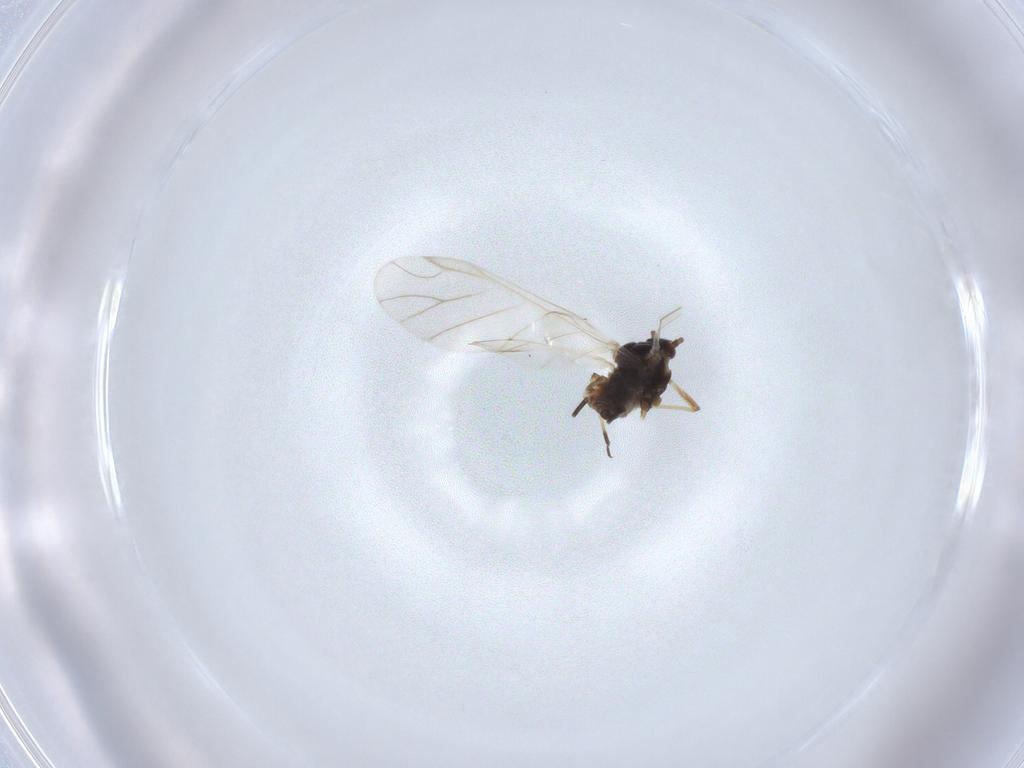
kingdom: Animalia
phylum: Arthropoda
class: Insecta
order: Hemiptera
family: Aphididae
